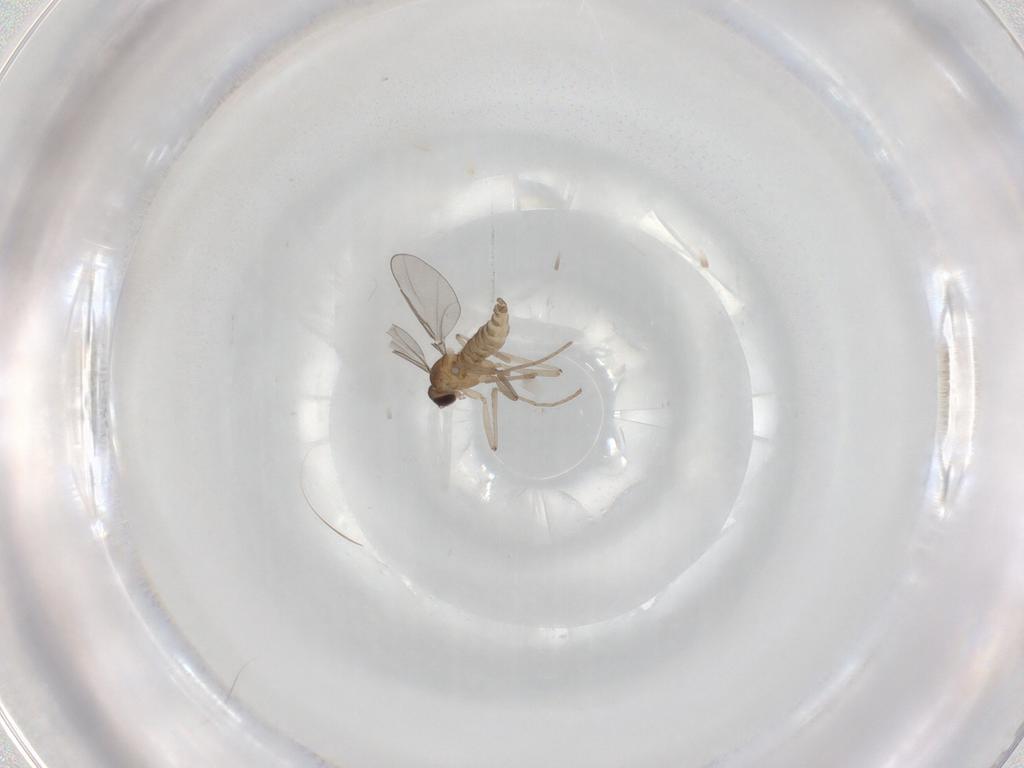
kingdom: Animalia
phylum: Arthropoda
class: Insecta
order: Diptera
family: Cecidomyiidae
